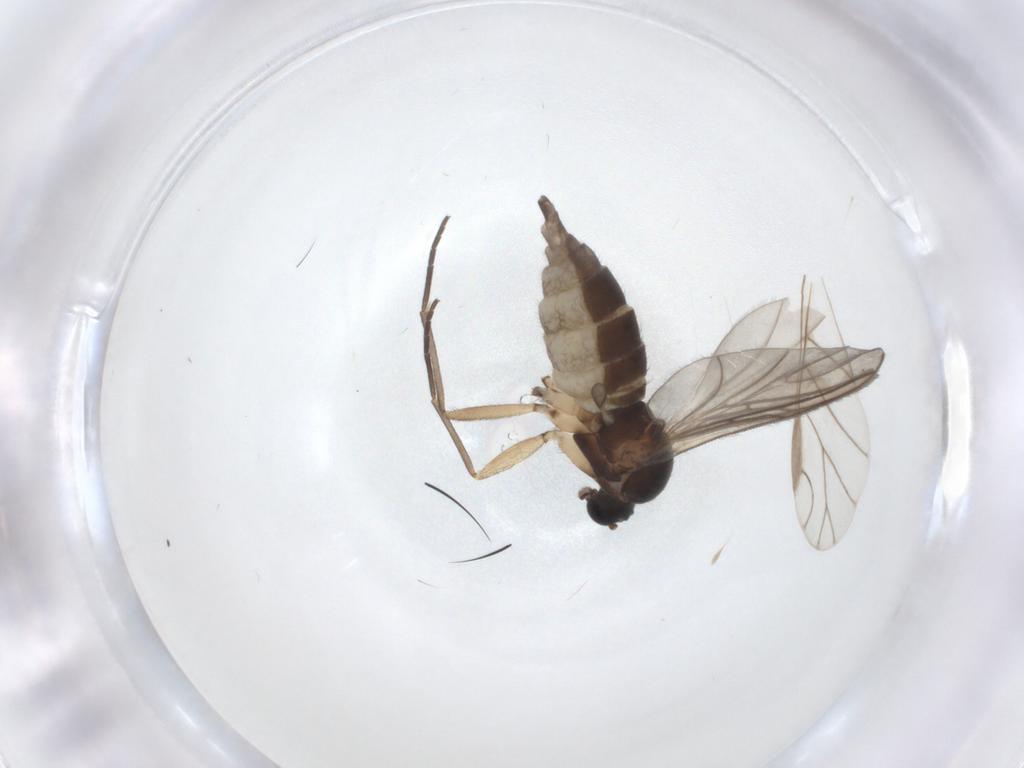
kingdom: Animalia
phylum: Arthropoda
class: Insecta
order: Diptera
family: Sciaridae
